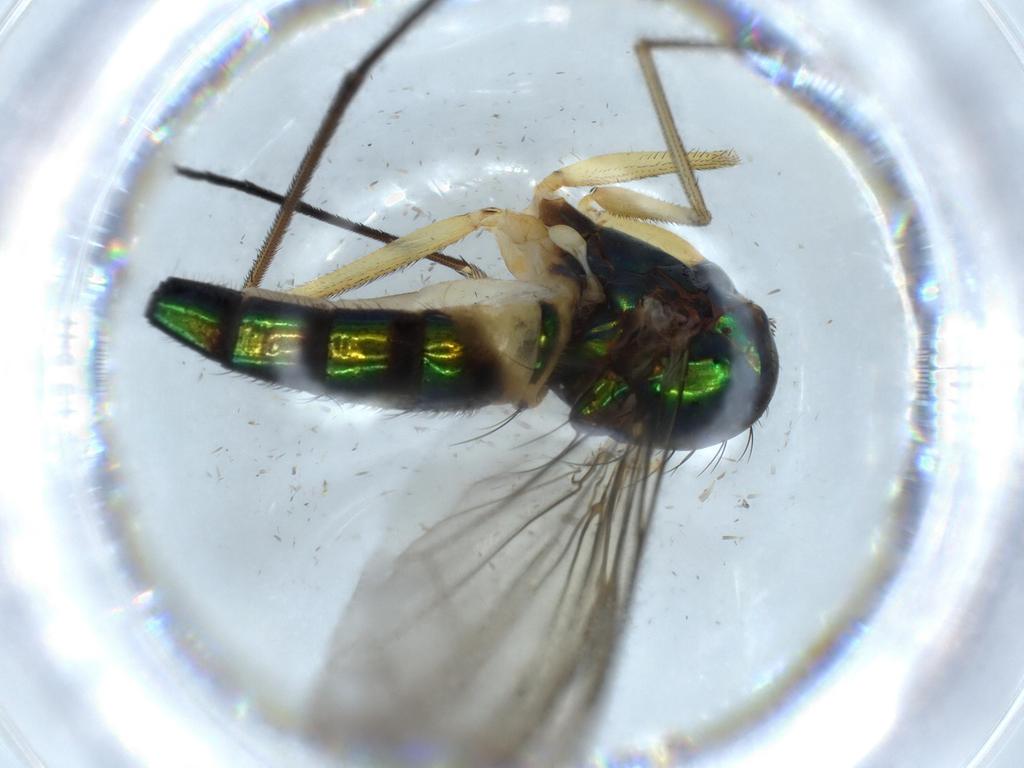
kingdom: Animalia
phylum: Arthropoda
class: Insecta
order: Diptera
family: Dolichopodidae
